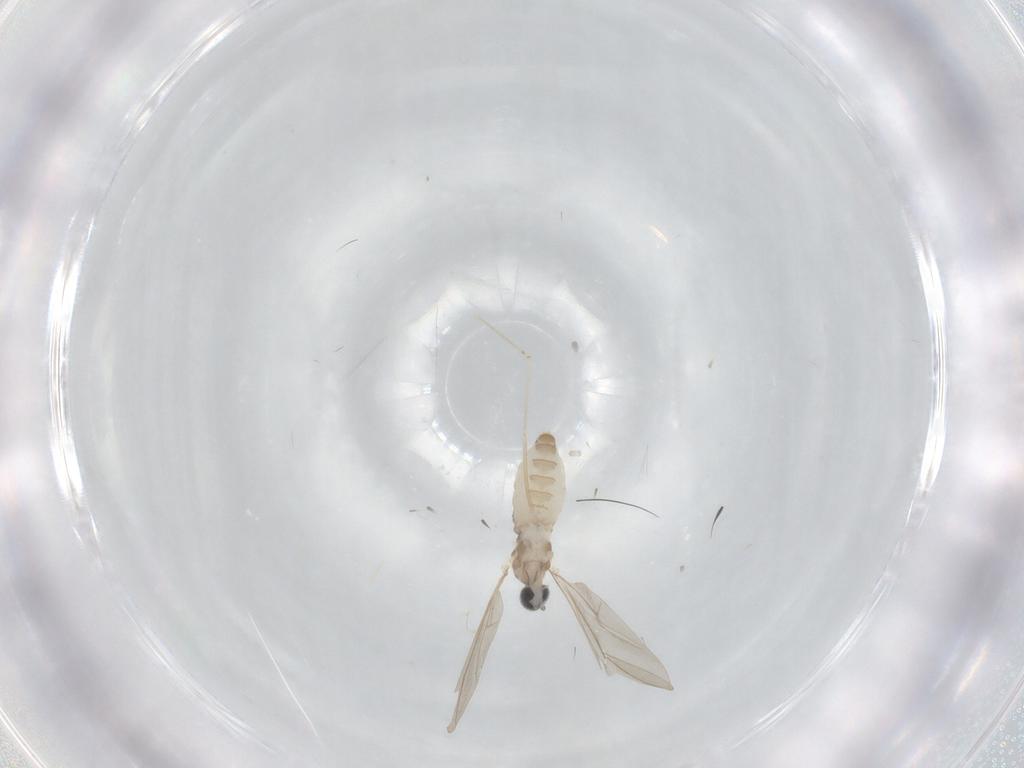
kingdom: Animalia
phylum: Arthropoda
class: Insecta
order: Diptera
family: Cecidomyiidae
